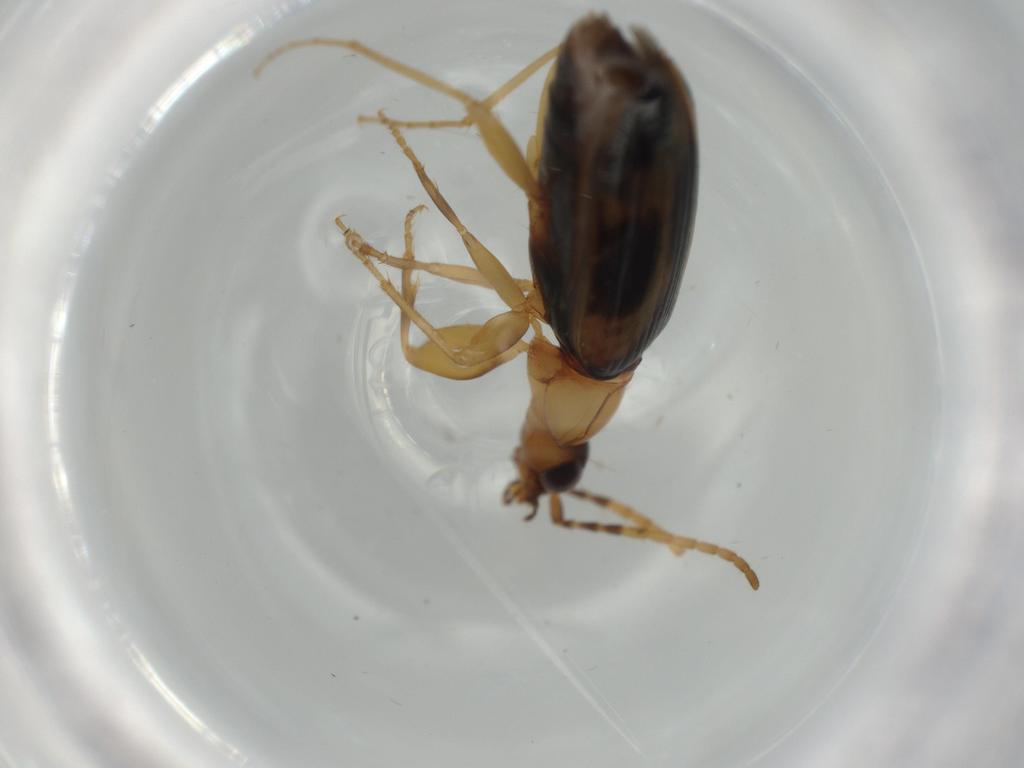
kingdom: Animalia
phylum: Arthropoda
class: Insecta
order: Coleoptera
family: Carabidae
